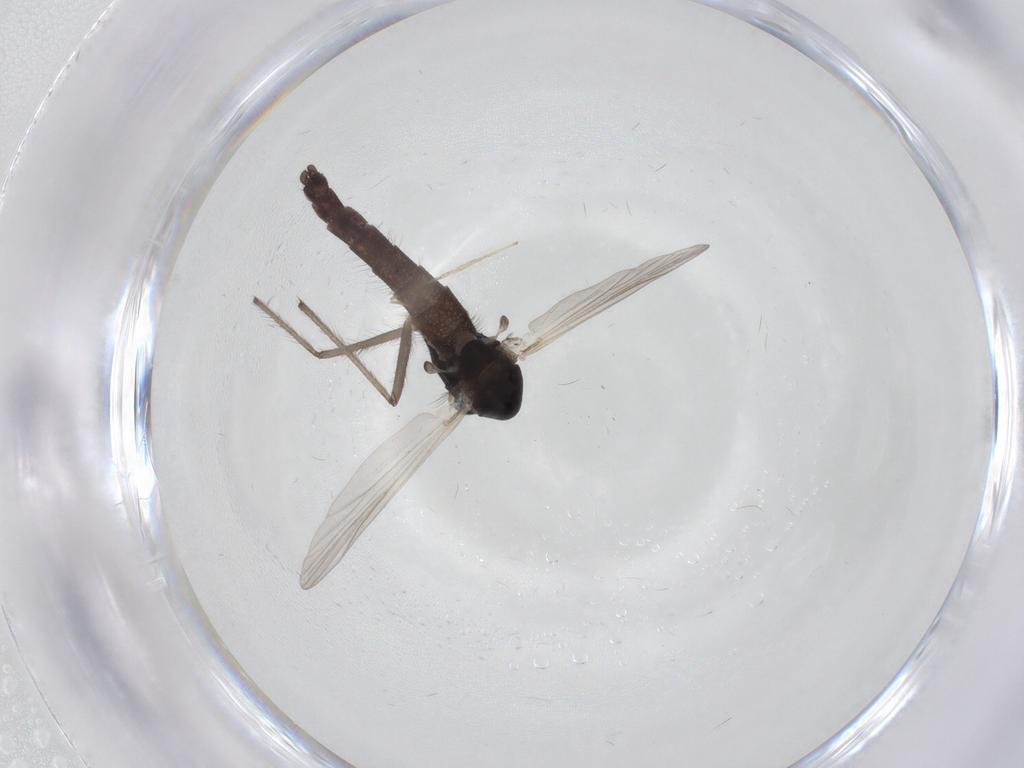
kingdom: Animalia
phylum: Arthropoda
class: Insecta
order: Diptera
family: Chironomidae
